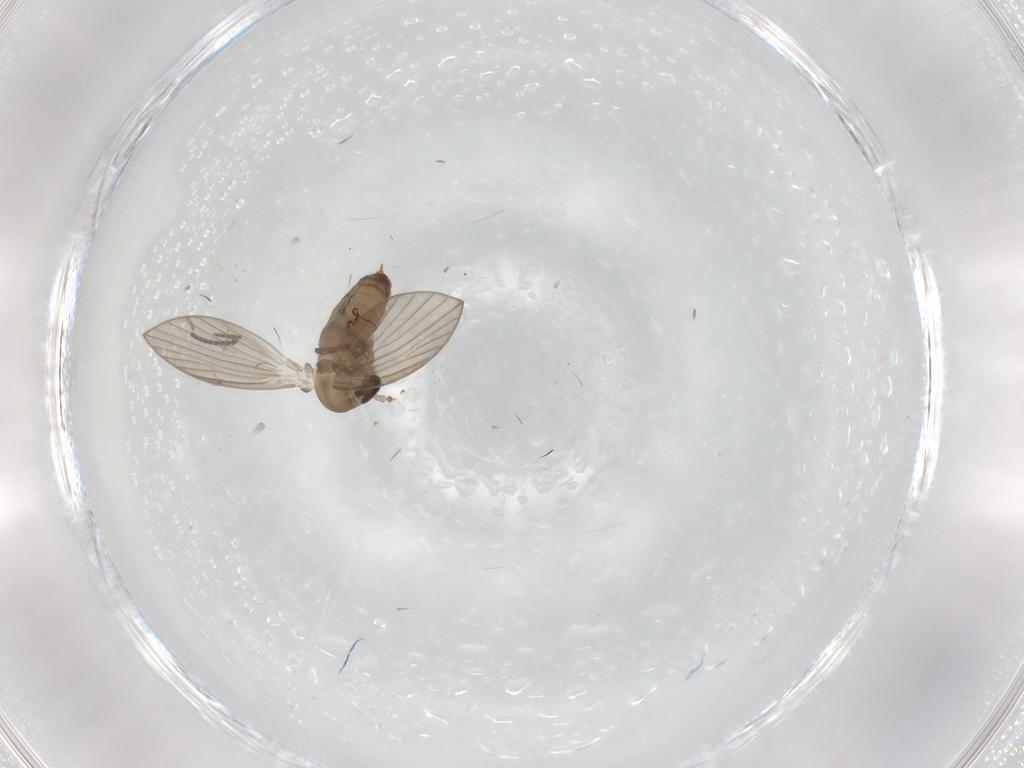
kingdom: Animalia
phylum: Arthropoda
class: Insecta
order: Diptera
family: Psychodidae
